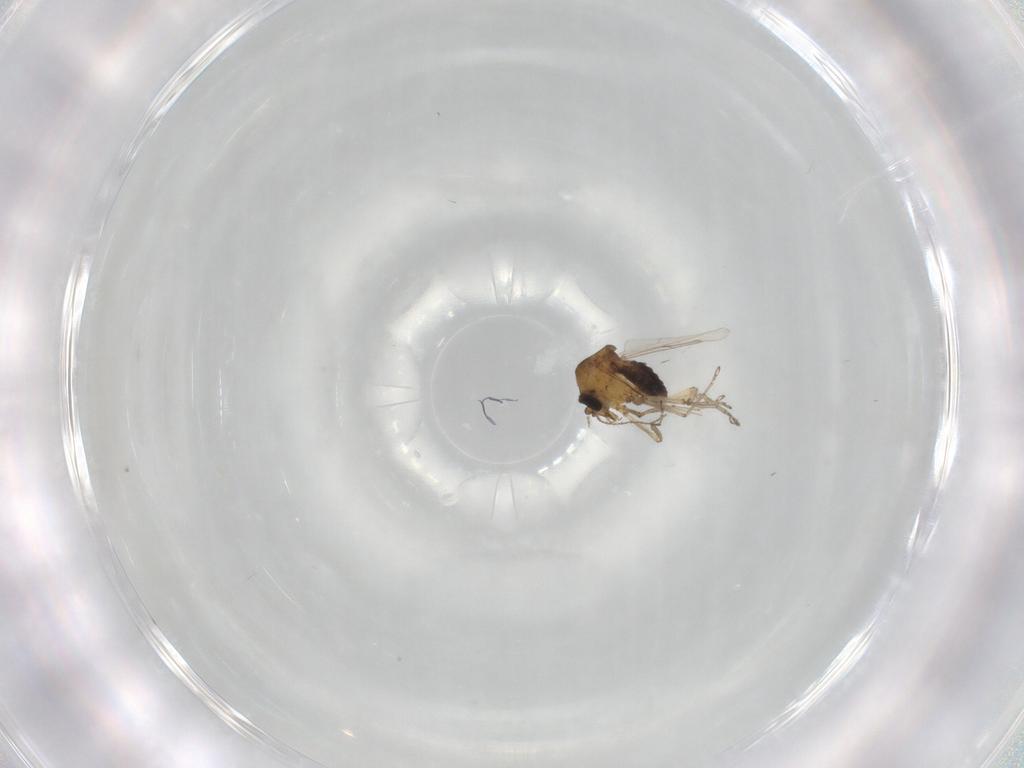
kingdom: Animalia
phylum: Arthropoda
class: Insecta
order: Diptera
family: Ceratopogonidae
